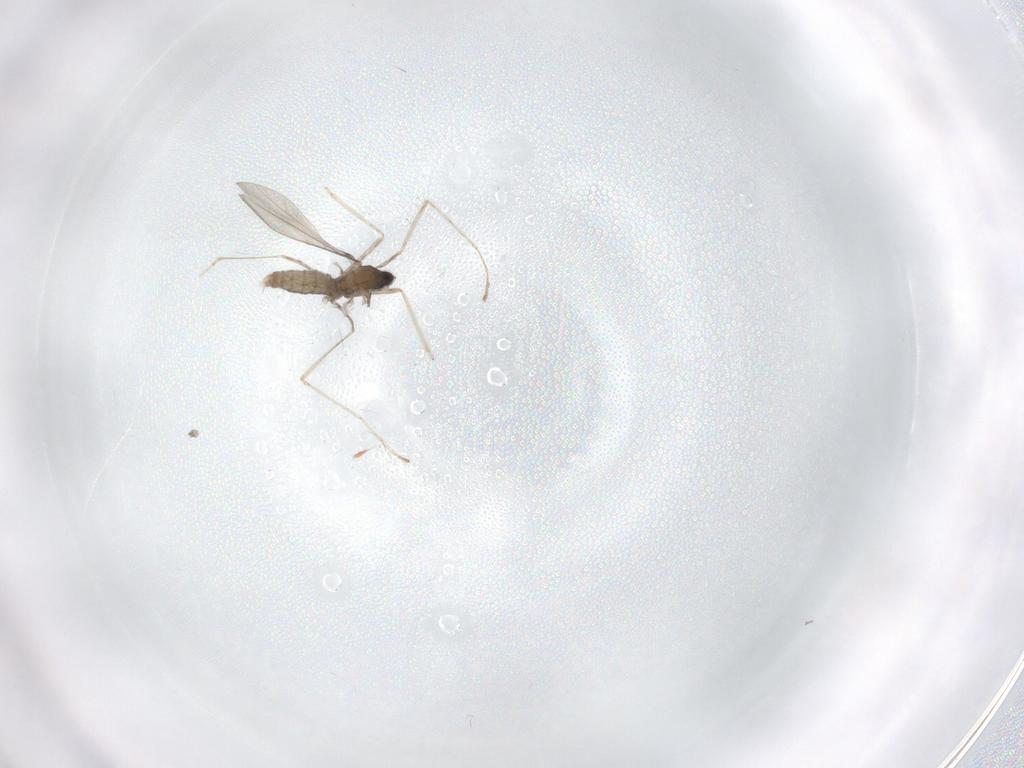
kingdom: Animalia
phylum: Arthropoda
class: Insecta
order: Diptera
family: Cecidomyiidae
